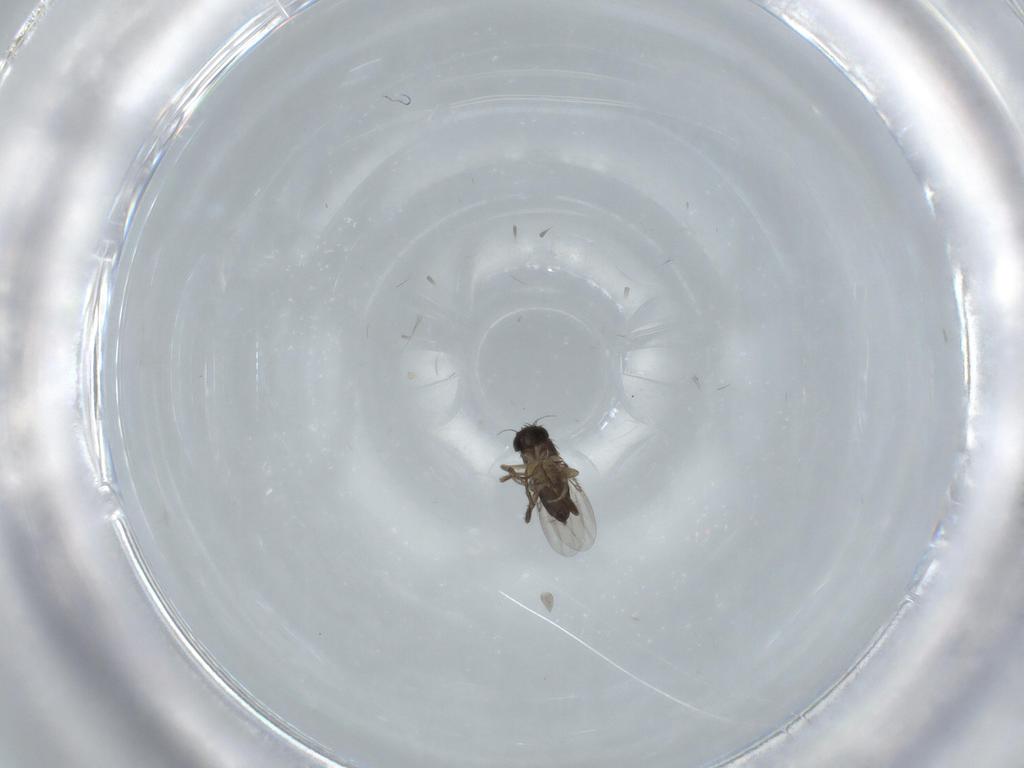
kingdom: Animalia
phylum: Arthropoda
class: Insecta
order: Diptera
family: Phoridae
